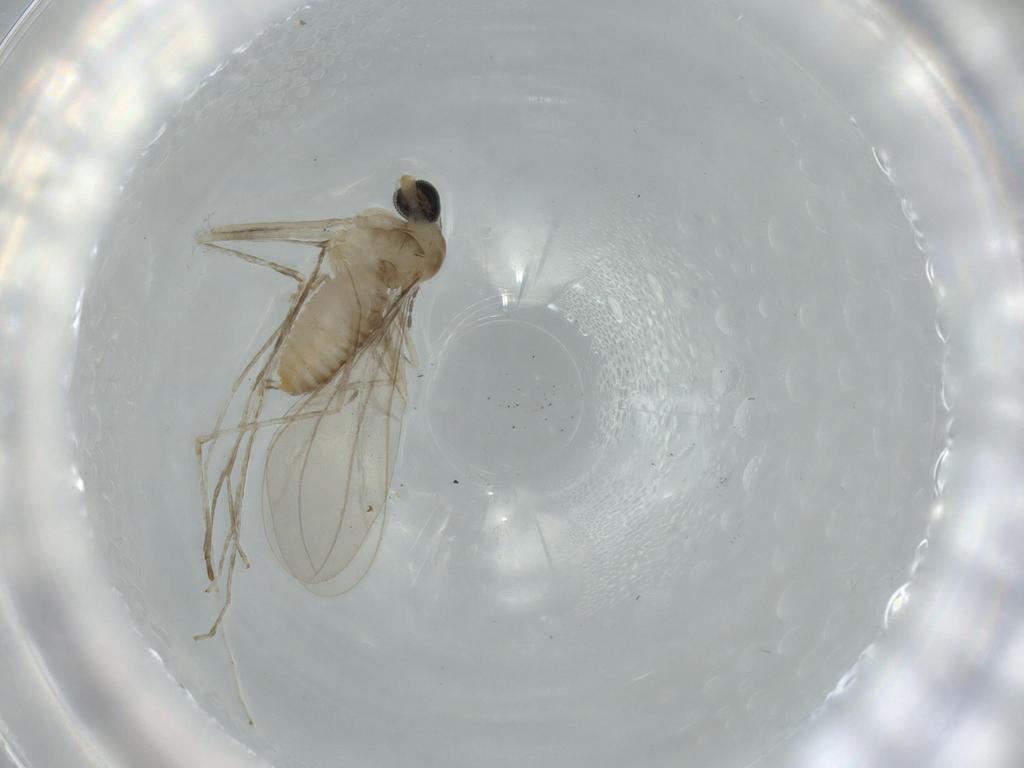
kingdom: Animalia
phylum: Arthropoda
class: Insecta
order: Diptera
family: Cecidomyiidae
